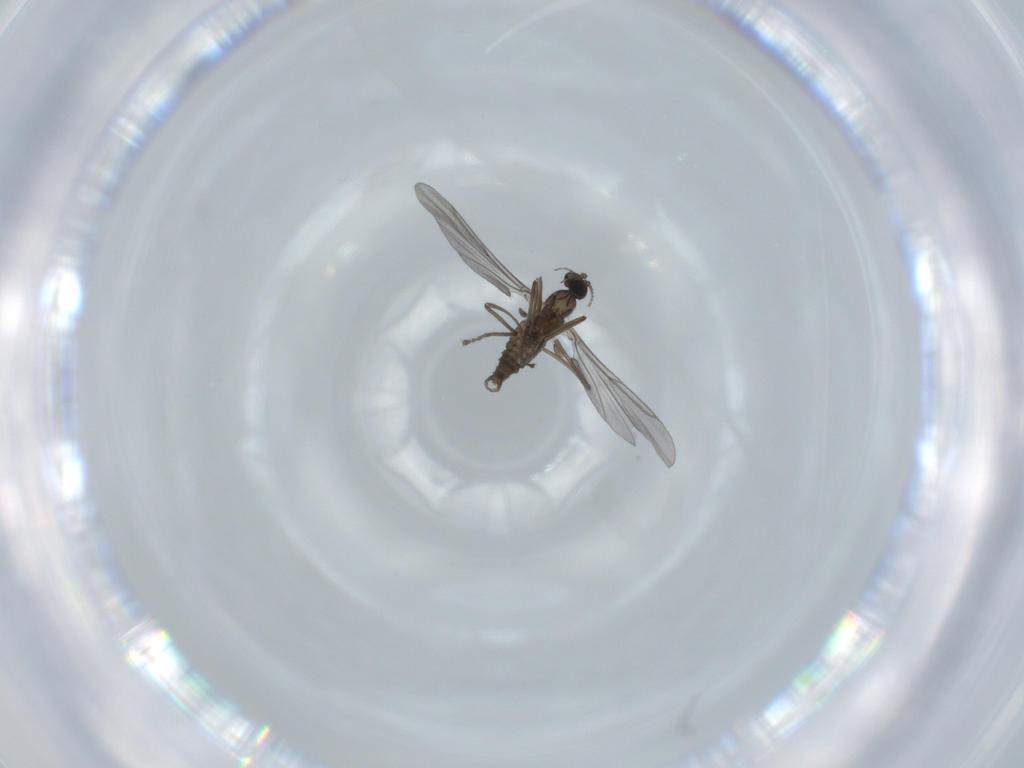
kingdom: Animalia
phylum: Arthropoda
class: Insecta
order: Diptera
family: Cecidomyiidae
